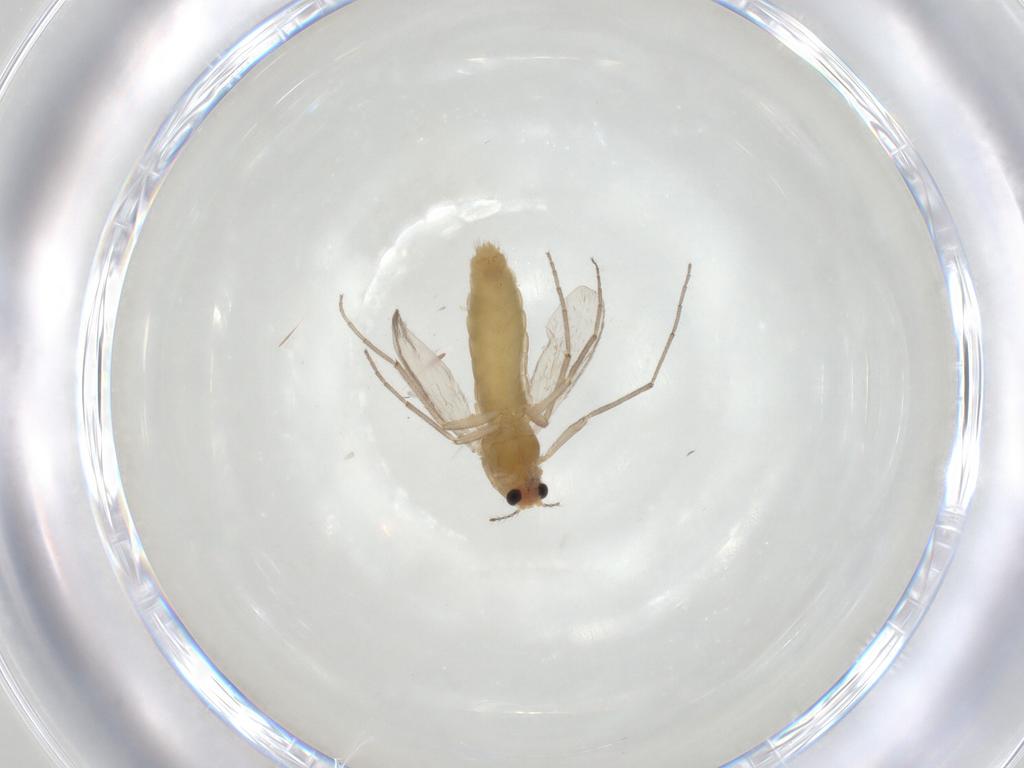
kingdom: Animalia
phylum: Arthropoda
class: Insecta
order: Diptera
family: Chironomidae
